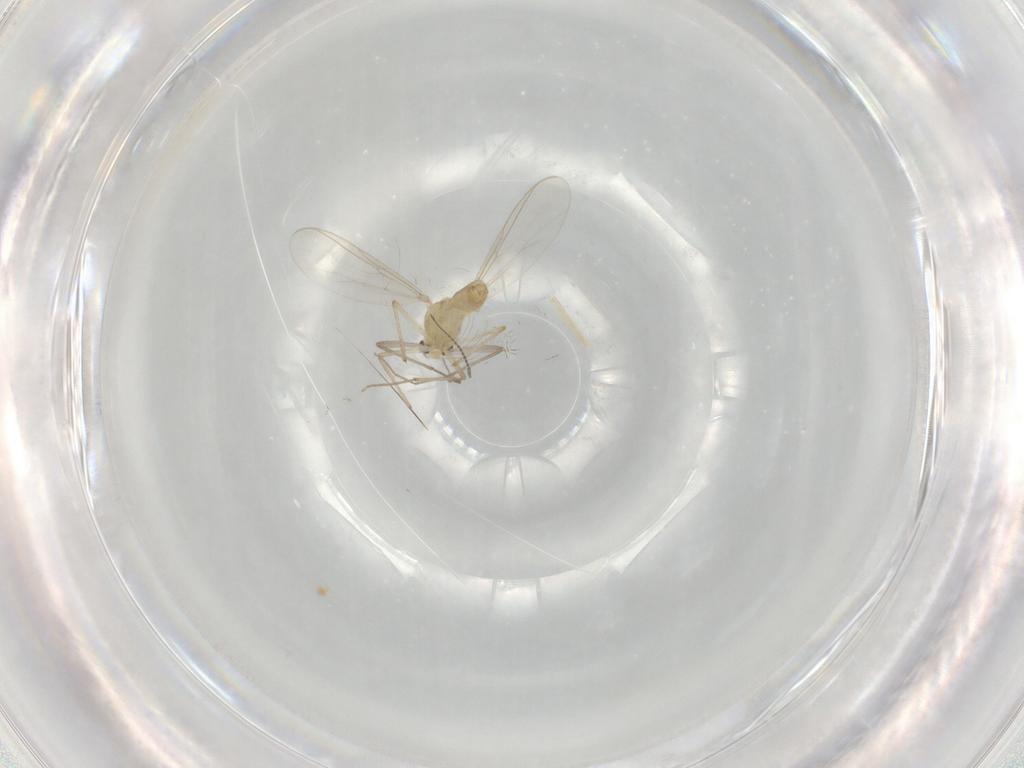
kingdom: Animalia
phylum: Arthropoda
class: Insecta
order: Diptera
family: Chironomidae
